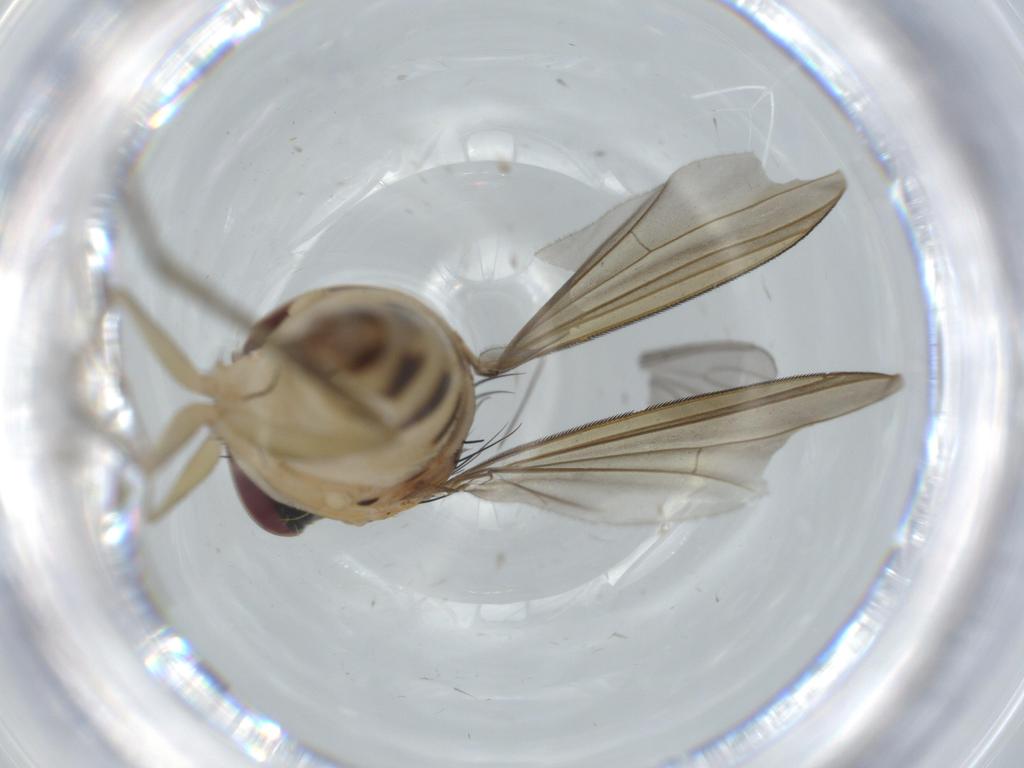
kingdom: Animalia
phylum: Arthropoda
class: Insecta
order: Diptera
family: Dolichopodidae
